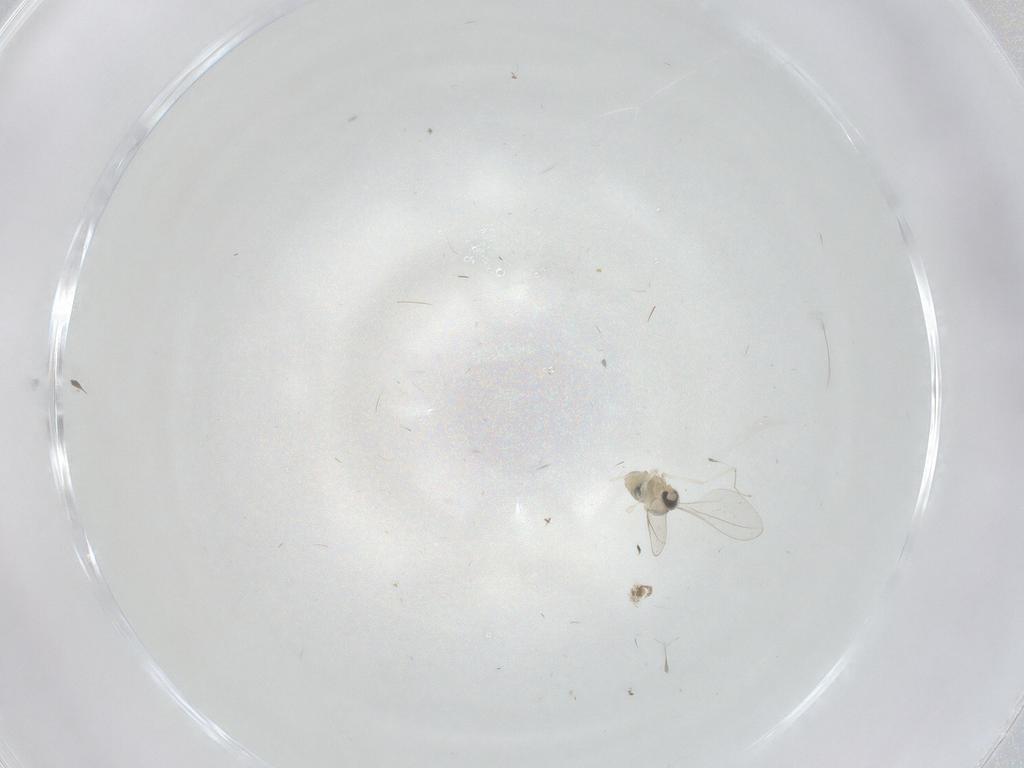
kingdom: Animalia
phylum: Arthropoda
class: Insecta
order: Diptera
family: Cecidomyiidae
